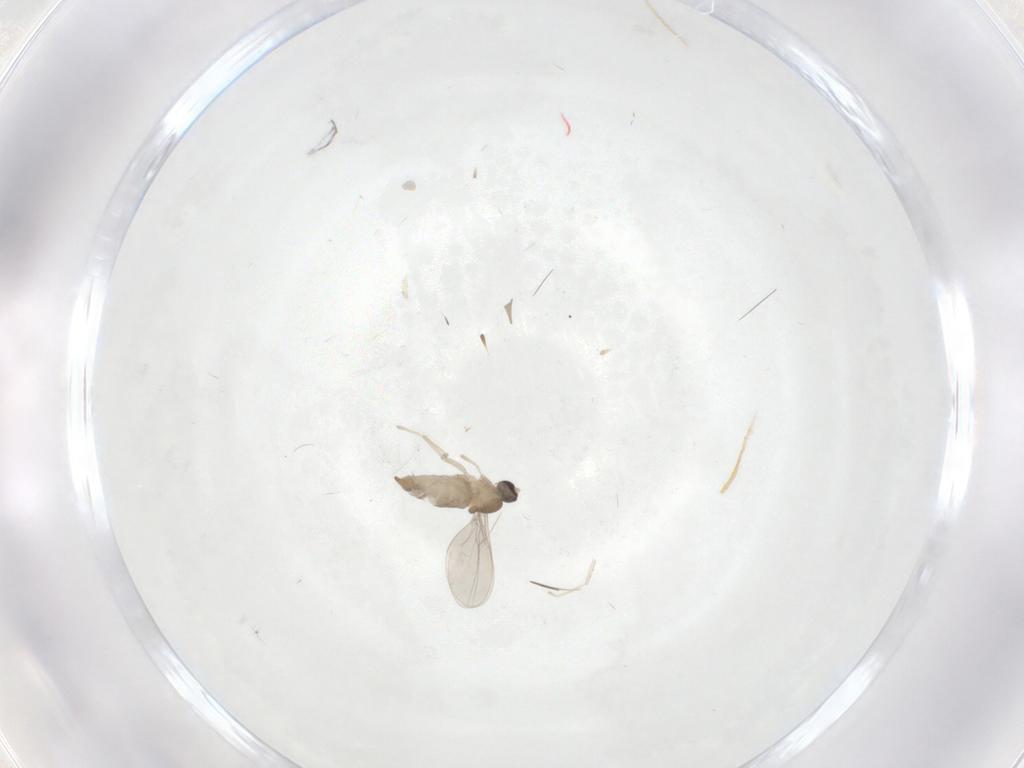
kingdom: Animalia
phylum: Arthropoda
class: Insecta
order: Diptera
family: Cecidomyiidae
